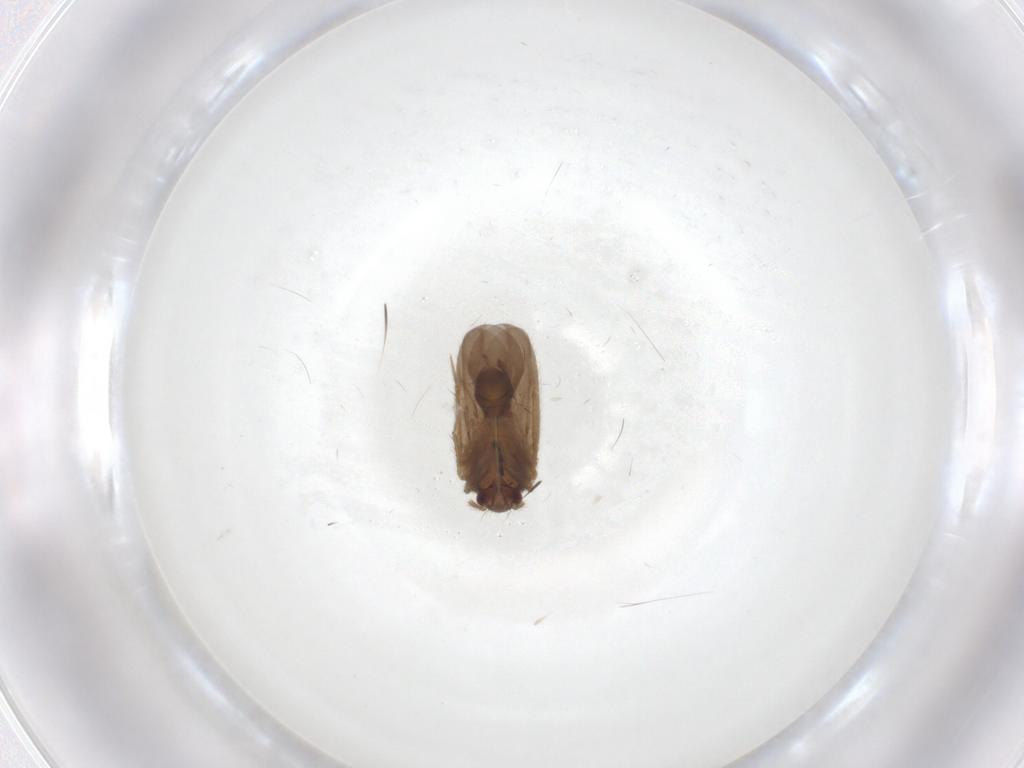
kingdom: Animalia
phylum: Arthropoda
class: Insecta
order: Hemiptera
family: Ceratocombidae
